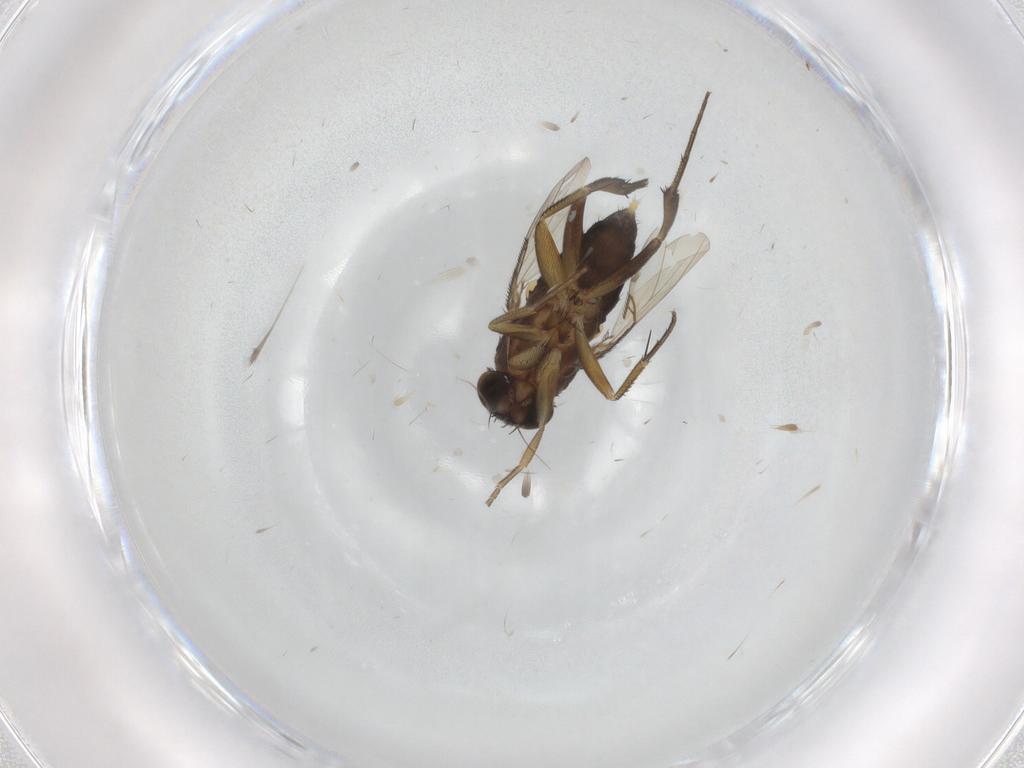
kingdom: Animalia
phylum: Arthropoda
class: Insecta
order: Diptera
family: Phoridae
